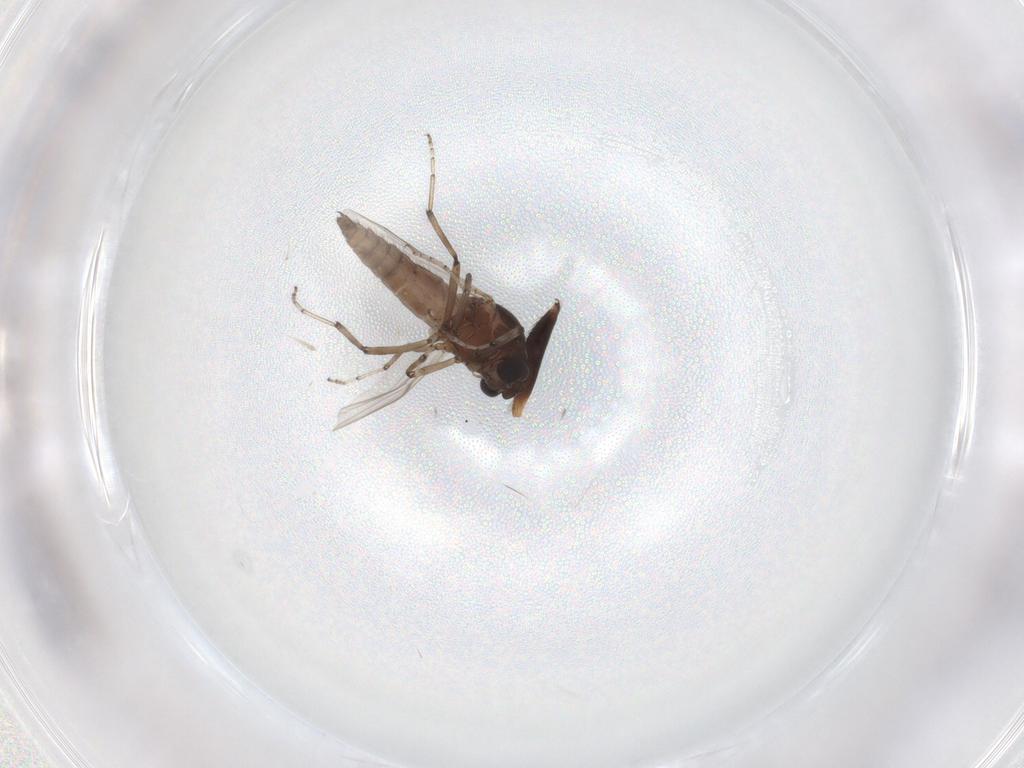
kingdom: Animalia
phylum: Arthropoda
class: Insecta
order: Diptera
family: Ceratopogonidae
